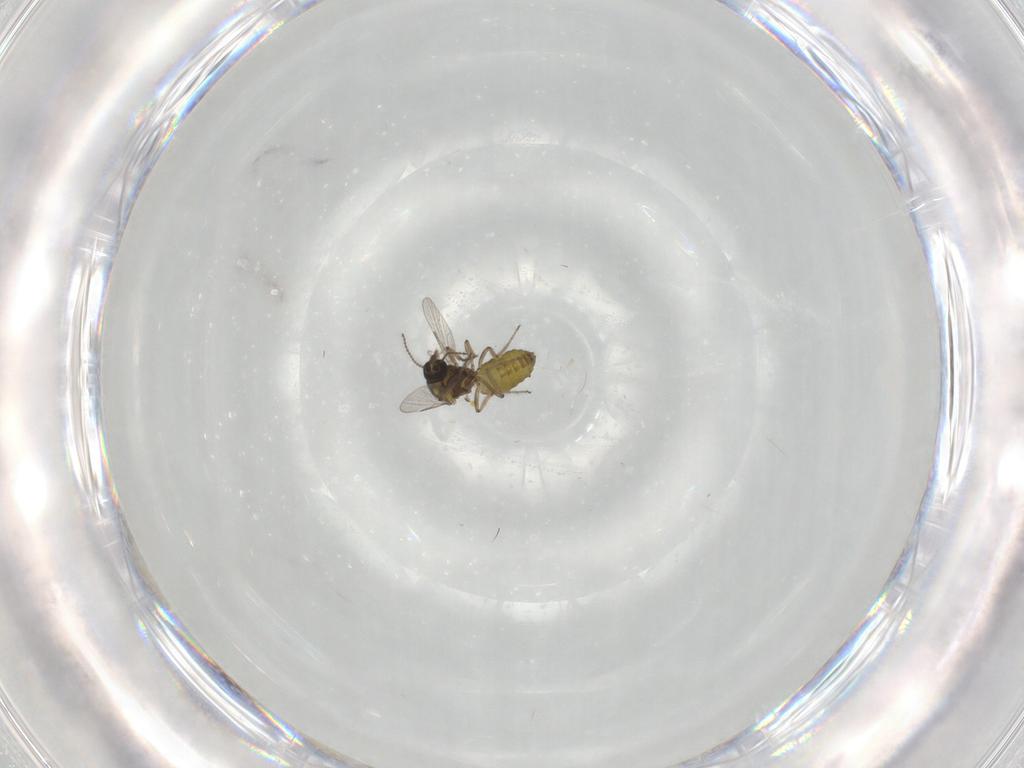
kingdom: Animalia
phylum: Arthropoda
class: Insecta
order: Diptera
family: Ceratopogonidae
